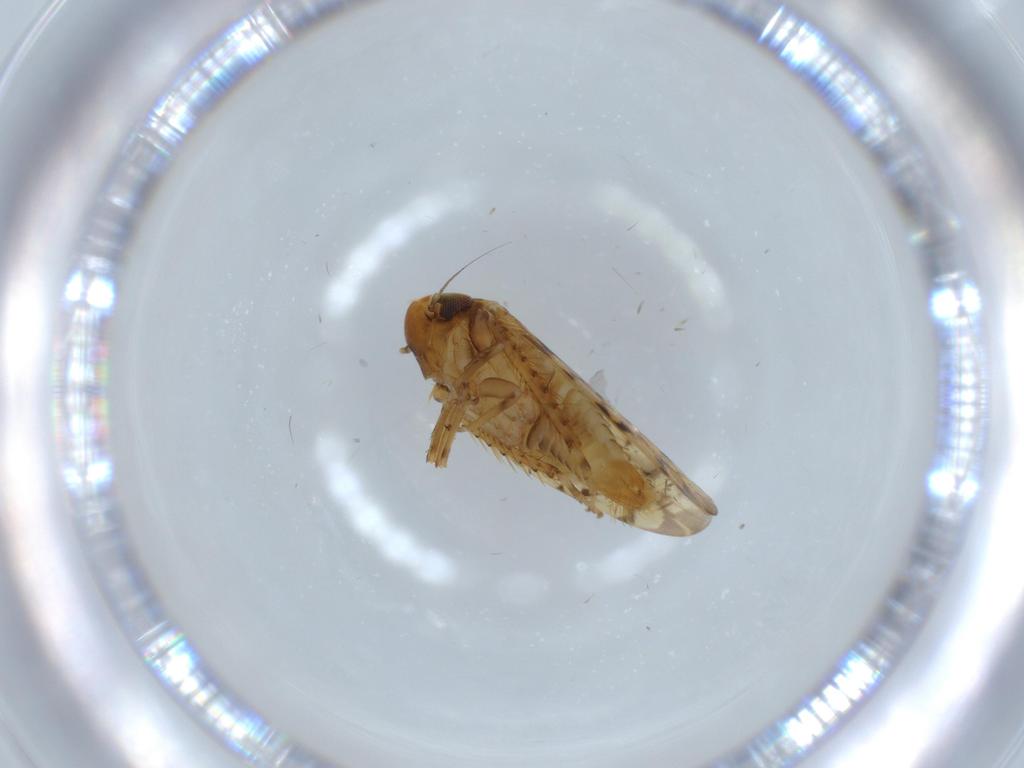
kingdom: Animalia
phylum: Arthropoda
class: Insecta
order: Hemiptera
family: Cicadellidae
